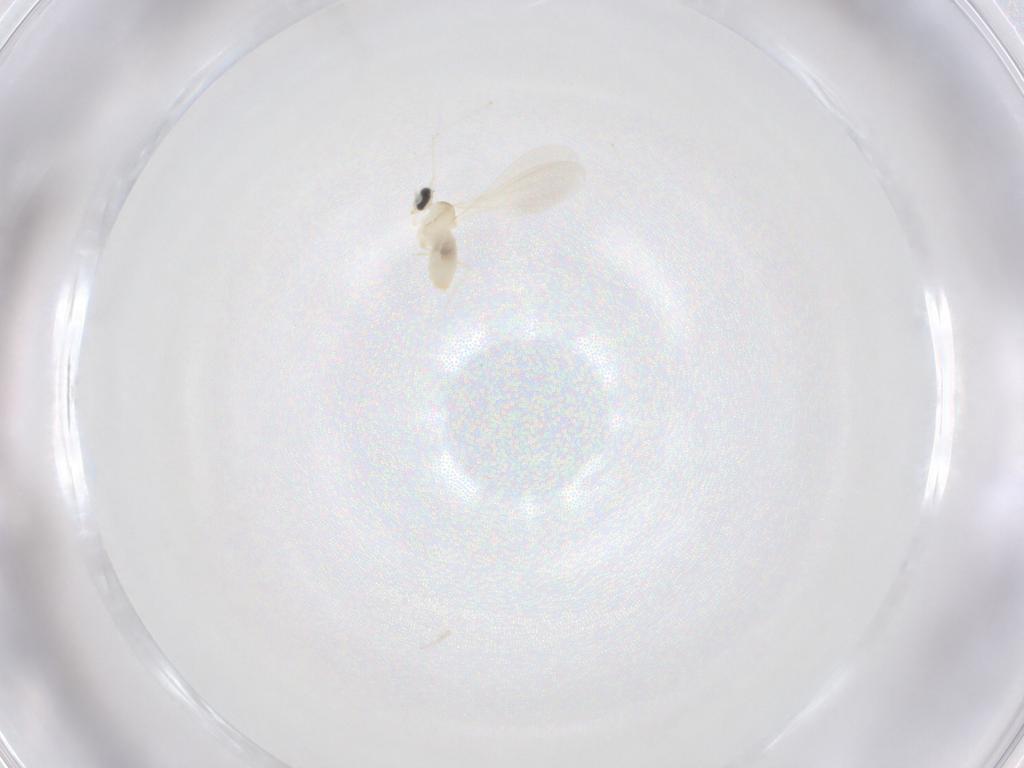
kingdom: Animalia
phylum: Arthropoda
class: Insecta
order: Diptera
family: Cecidomyiidae
